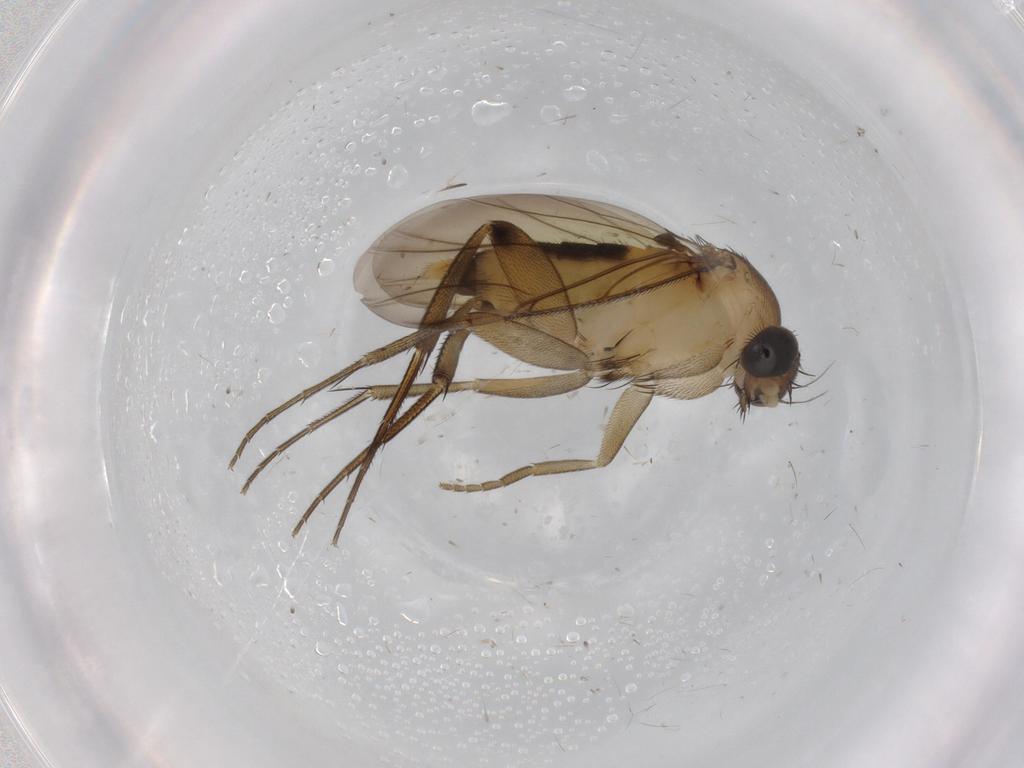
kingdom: Animalia
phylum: Arthropoda
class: Insecta
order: Diptera
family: Phoridae
